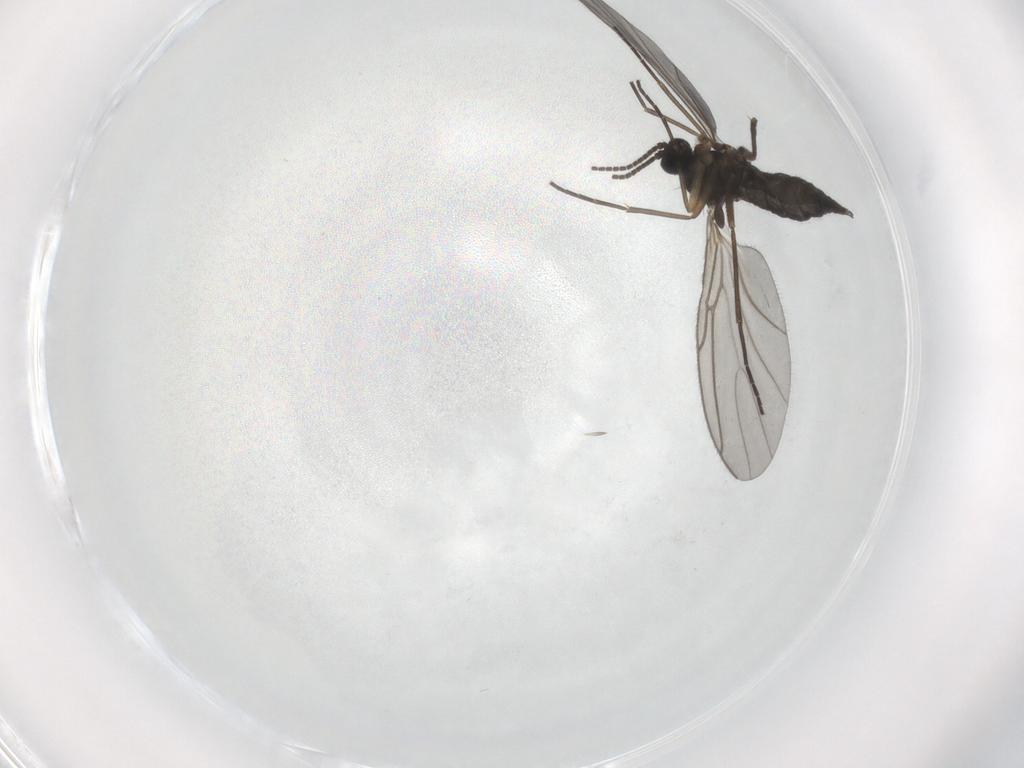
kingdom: Animalia
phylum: Arthropoda
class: Insecta
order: Diptera
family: Sciaridae
